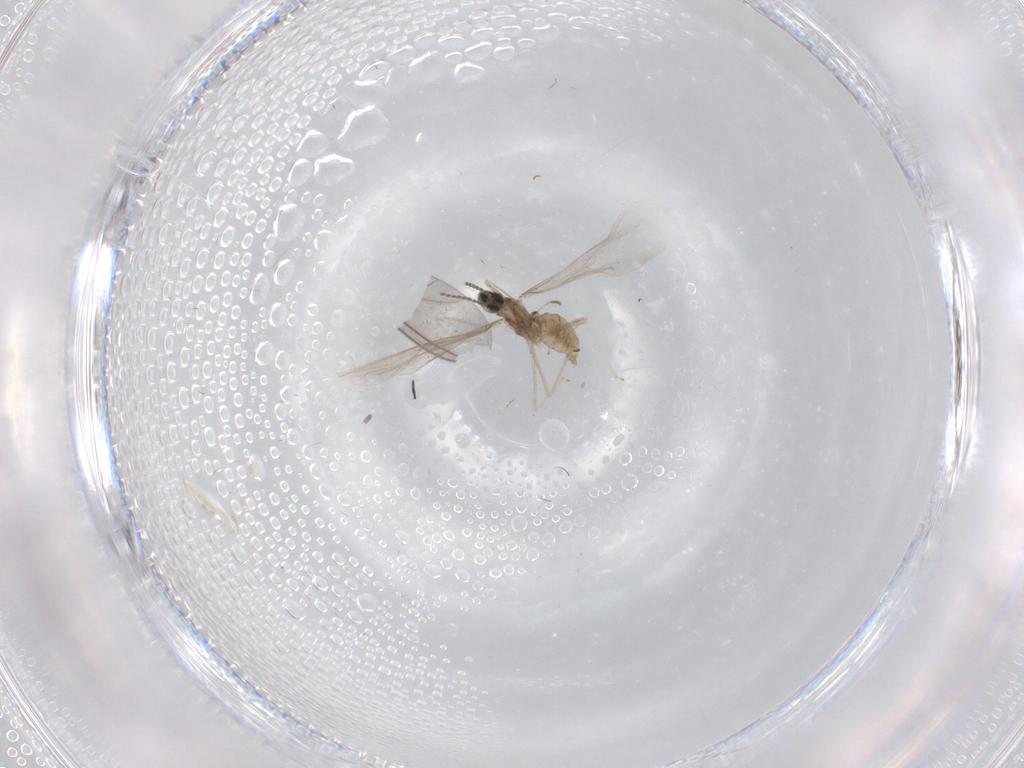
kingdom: Animalia
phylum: Arthropoda
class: Insecta
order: Diptera
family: Cecidomyiidae
